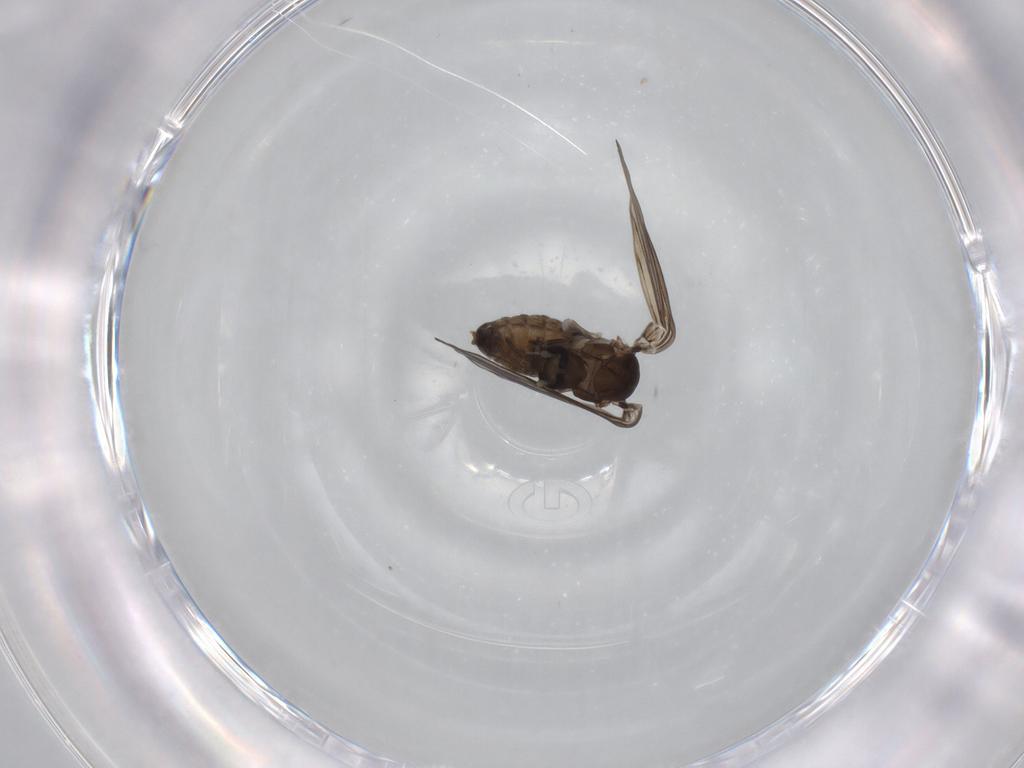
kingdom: Animalia
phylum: Arthropoda
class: Insecta
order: Diptera
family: Psychodidae
